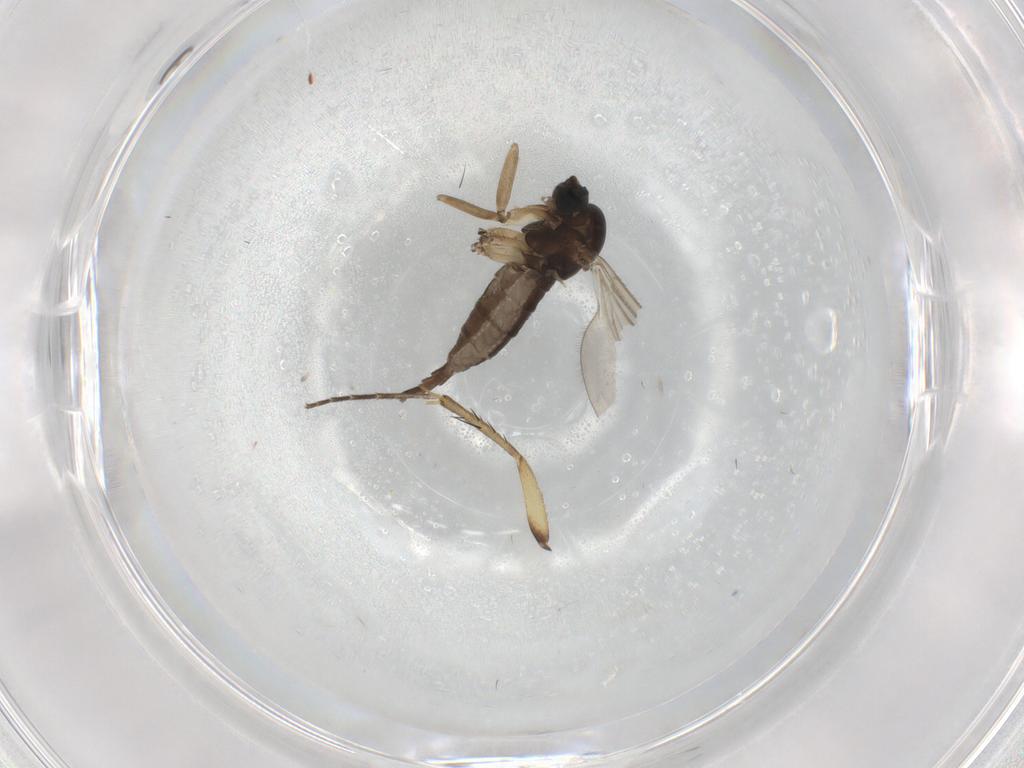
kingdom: Animalia
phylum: Arthropoda
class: Insecta
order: Diptera
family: Sciaridae
